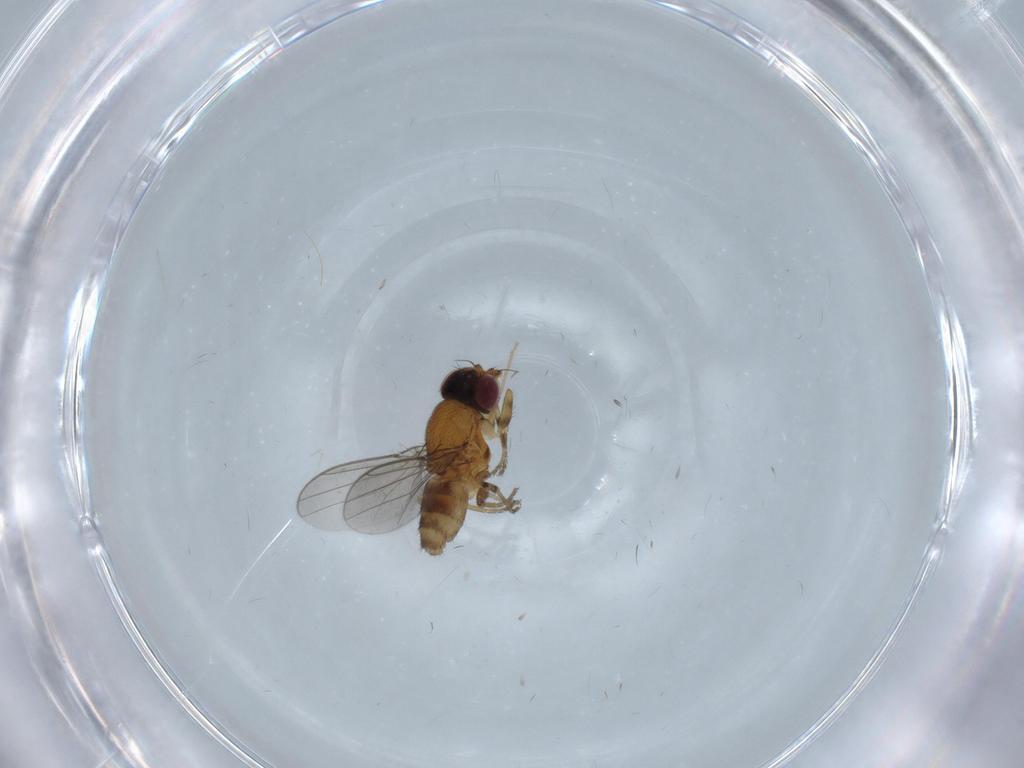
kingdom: Animalia
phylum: Arthropoda
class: Insecta
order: Diptera
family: Chloropidae
